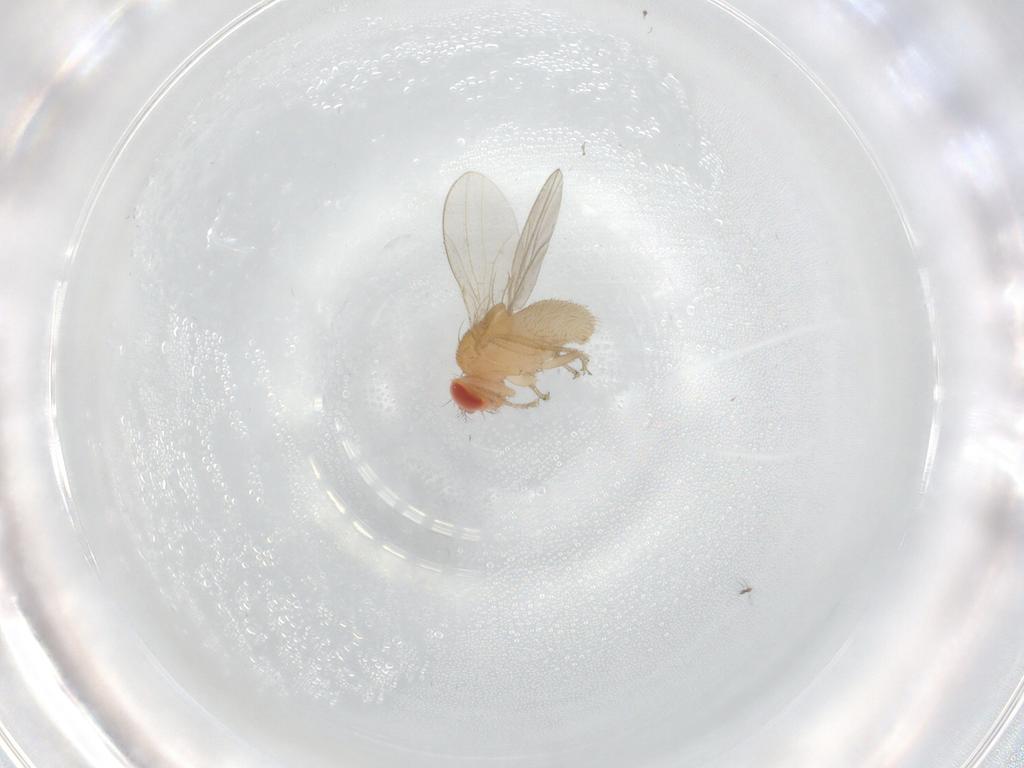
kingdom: Animalia
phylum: Arthropoda
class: Insecta
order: Diptera
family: Drosophilidae
